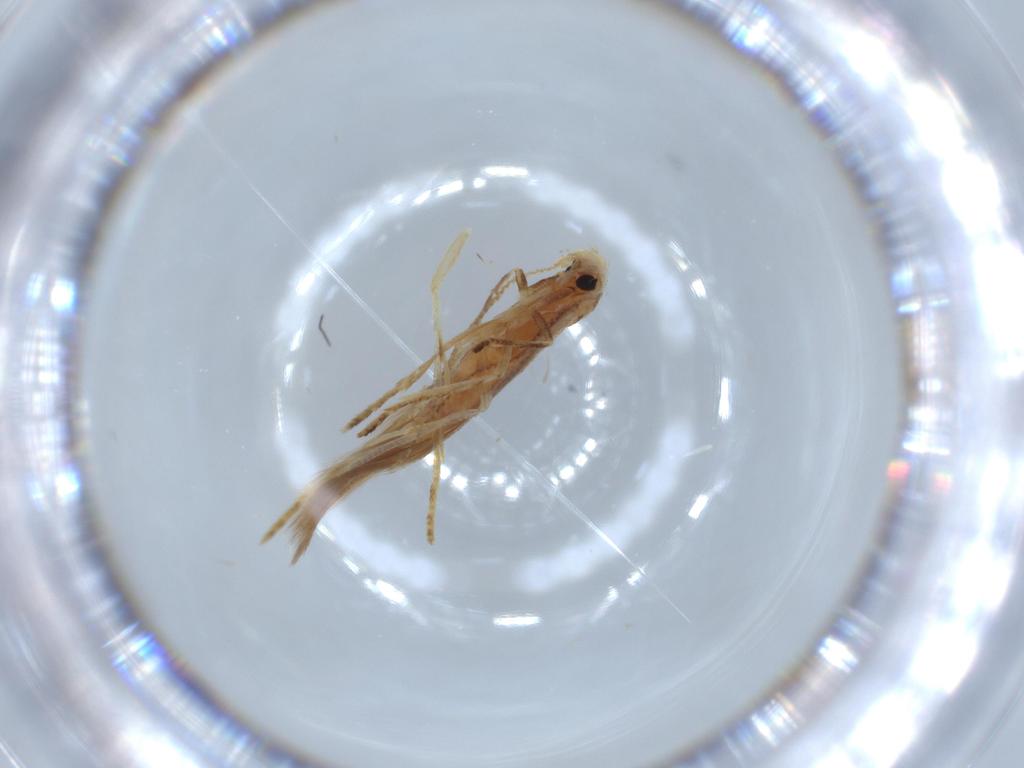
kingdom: Animalia
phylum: Arthropoda
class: Insecta
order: Lepidoptera
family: Gracillariidae
